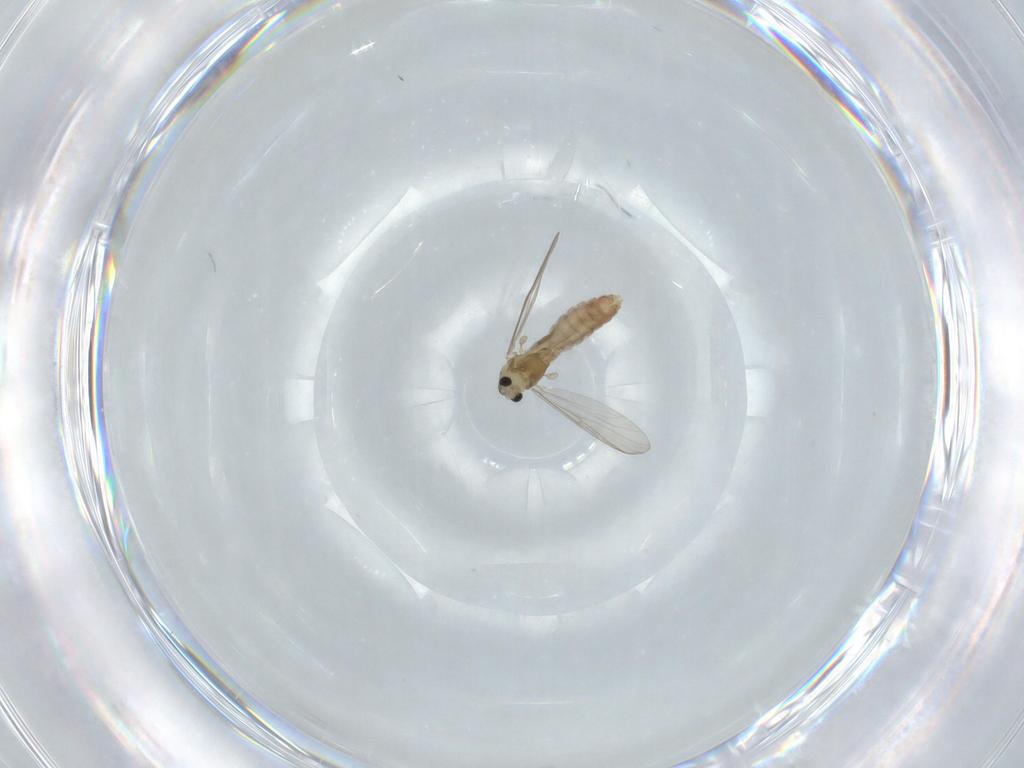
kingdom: Animalia
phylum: Arthropoda
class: Insecta
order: Diptera
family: Chironomidae
